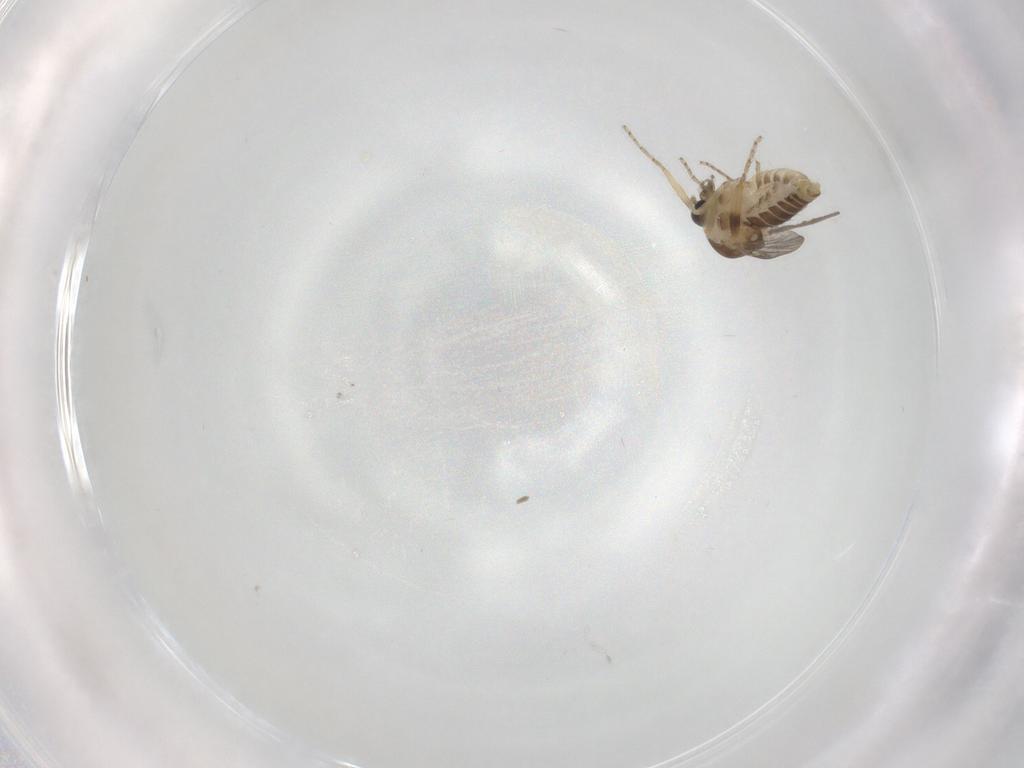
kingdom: Animalia
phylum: Arthropoda
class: Insecta
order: Diptera
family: Ceratopogonidae
